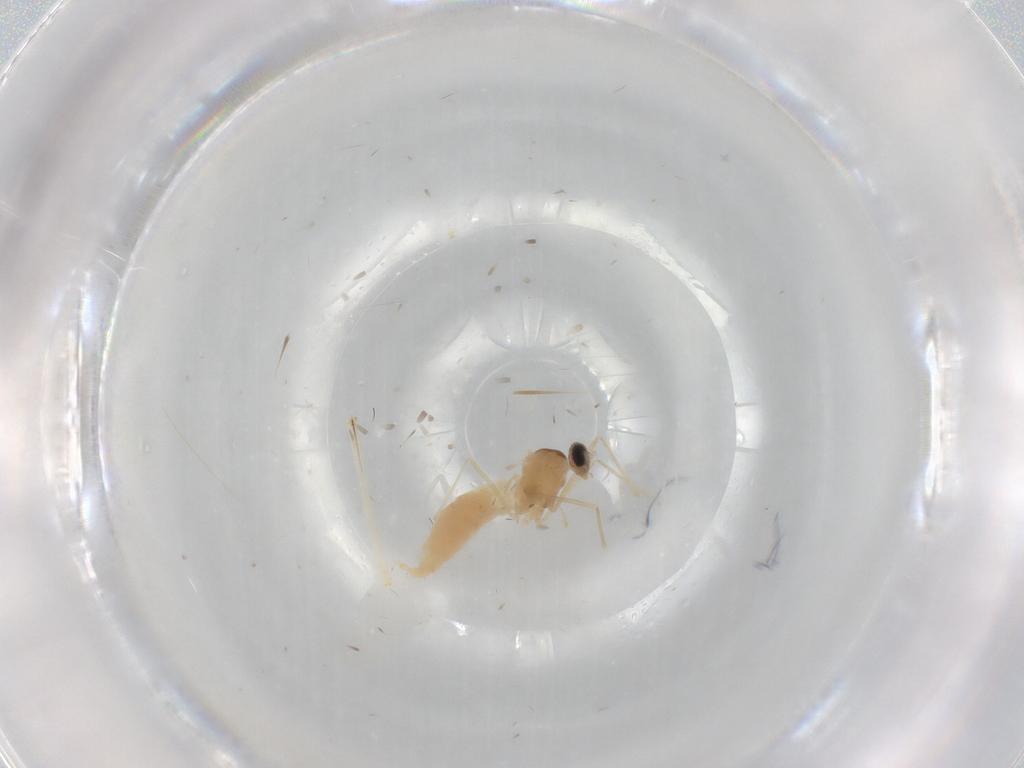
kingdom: Animalia
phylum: Arthropoda
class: Insecta
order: Diptera
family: Cecidomyiidae
